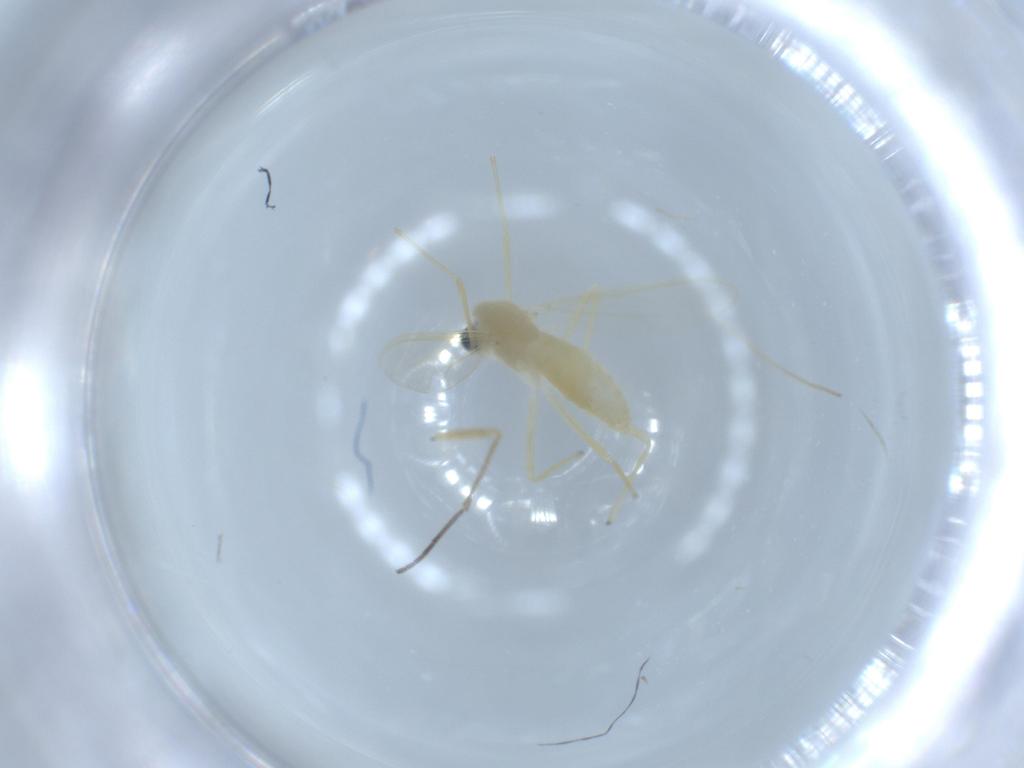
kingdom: Animalia
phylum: Arthropoda
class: Insecta
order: Diptera
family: Chironomidae
